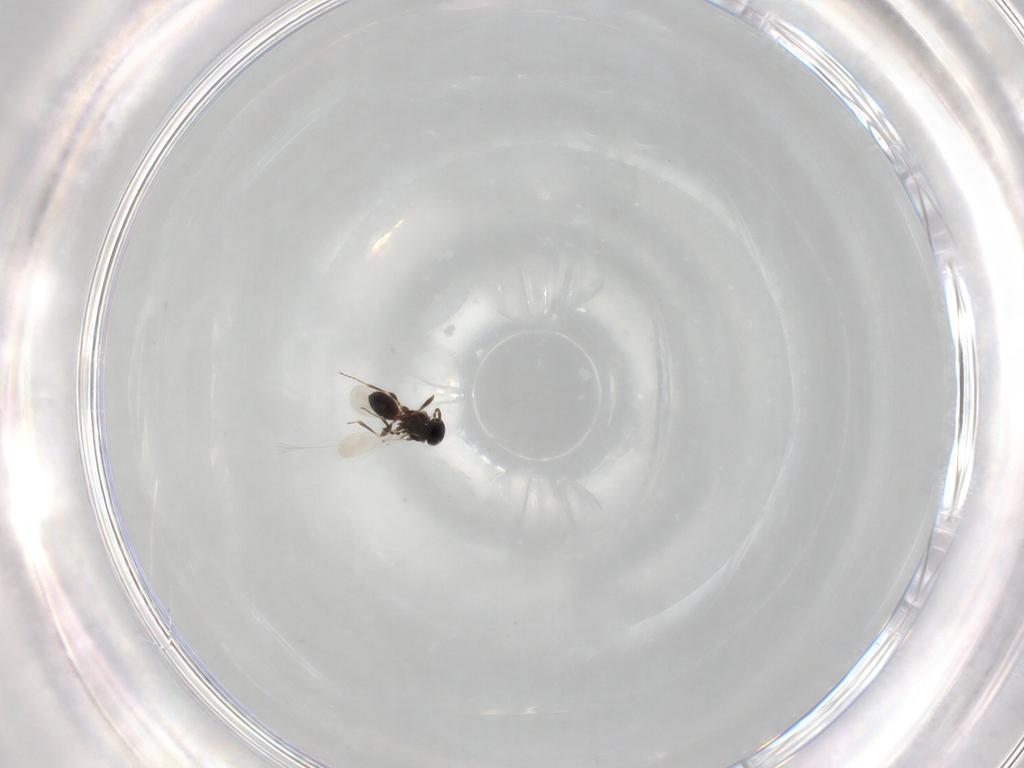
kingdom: Animalia
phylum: Arthropoda
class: Insecta
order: Hymenoptera
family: Platygastridae
